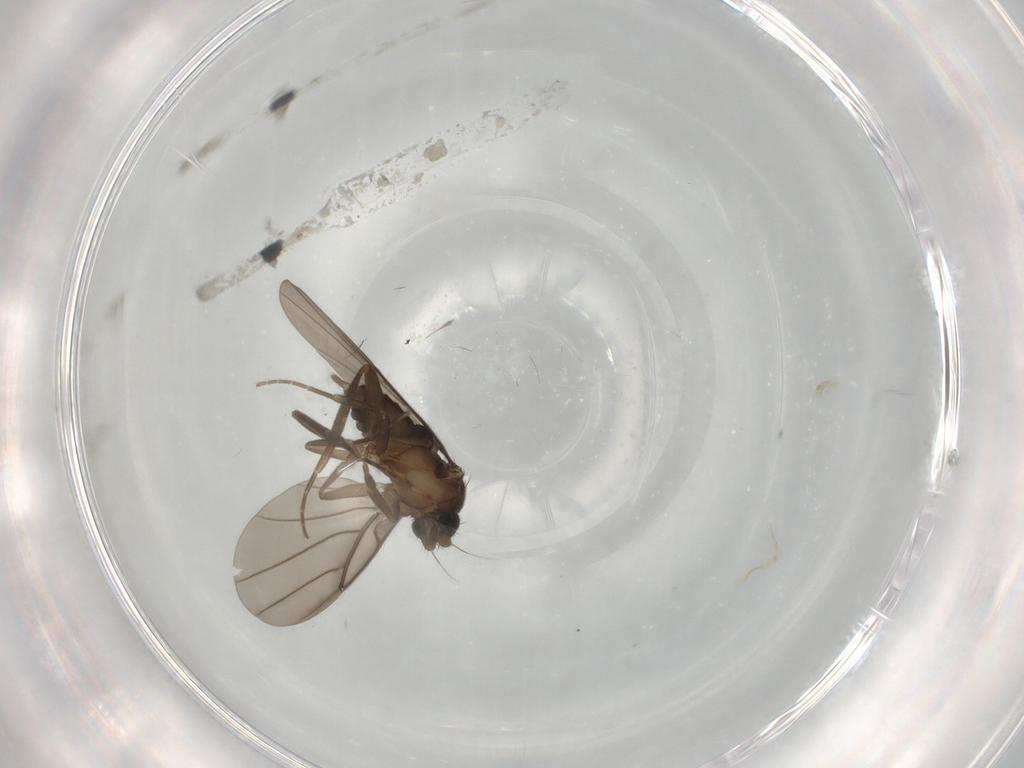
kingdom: Animalia
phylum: Arthropoda
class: Insecta
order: Diptera
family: Phoridae
